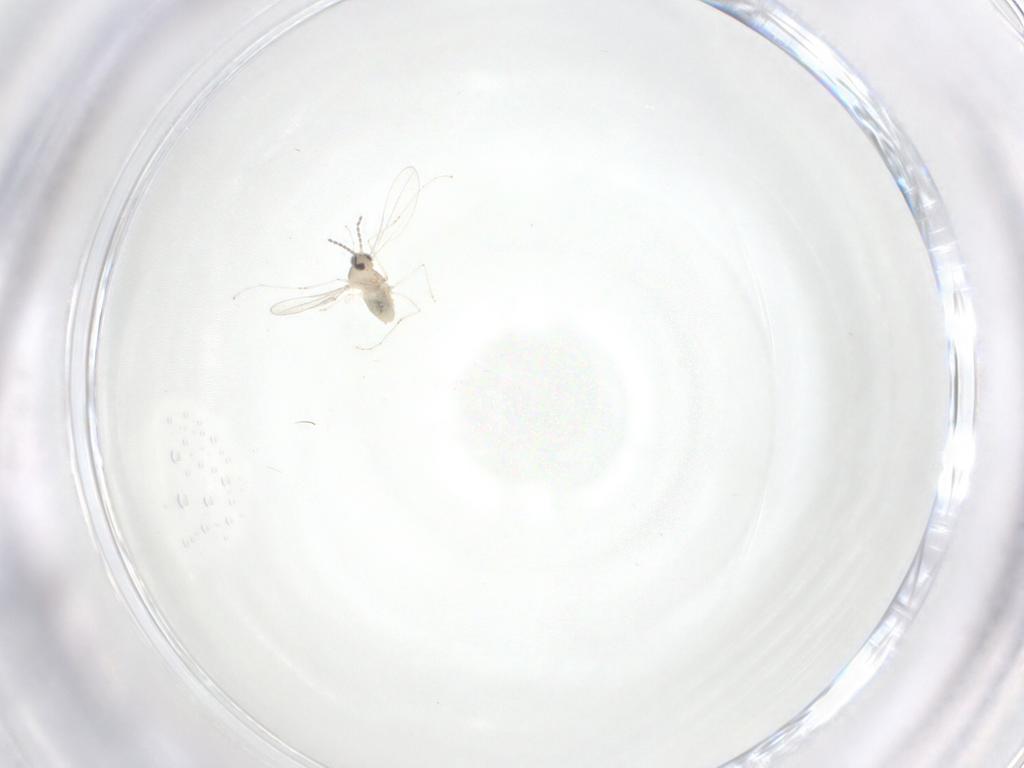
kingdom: Animalia
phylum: Arthropoda
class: Insecta
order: Diptera
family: Cecidomyiidae
